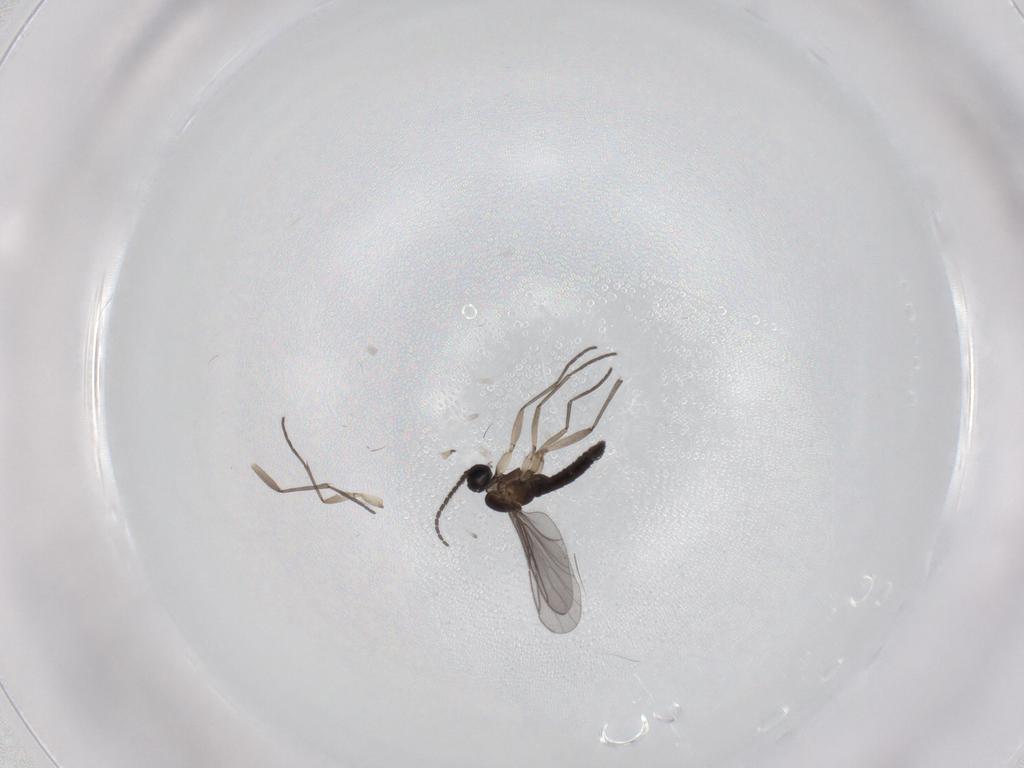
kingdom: Animalia
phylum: Arthropoda
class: Insecta
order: Diptera
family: Sciaridae
